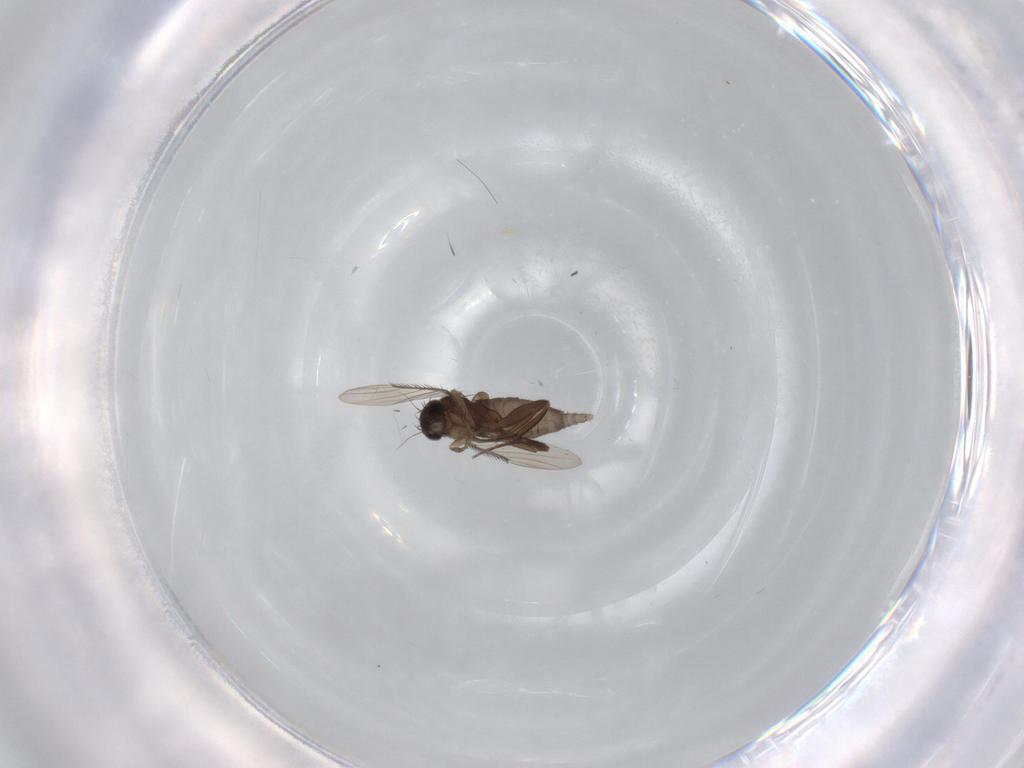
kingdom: Animalia
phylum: Arthropoda
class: Insecta
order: Diptera
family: Phoridae
